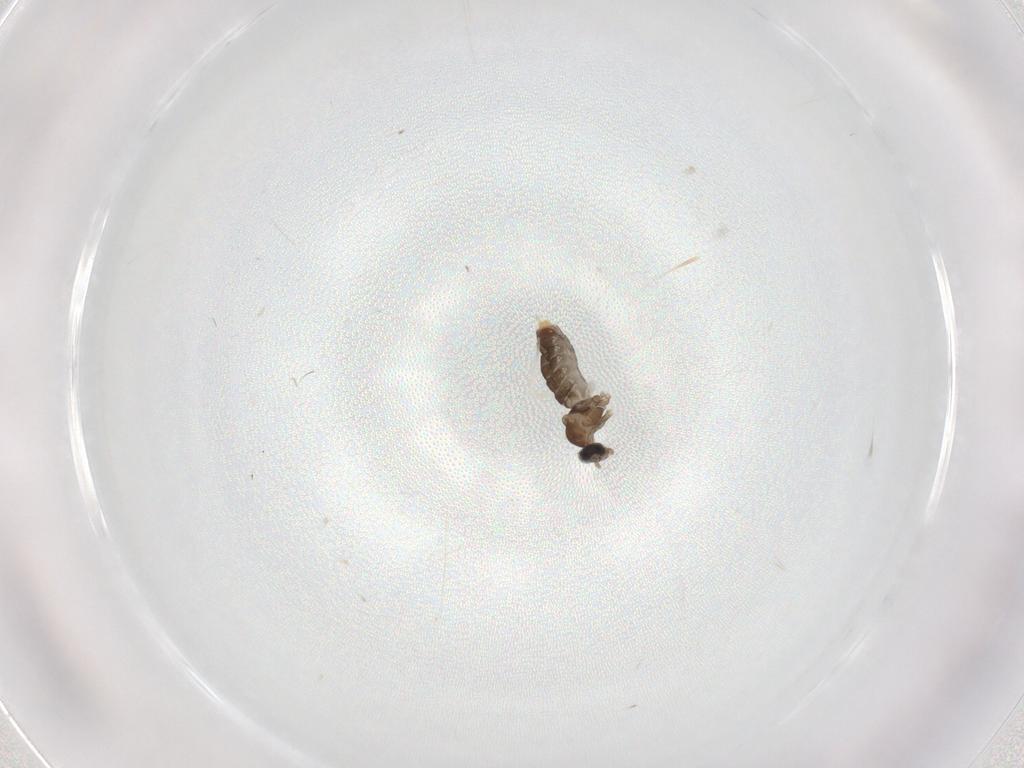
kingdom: Animalia
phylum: Arthropoda
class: Insecta
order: Diptera
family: Cecidomyiidae
